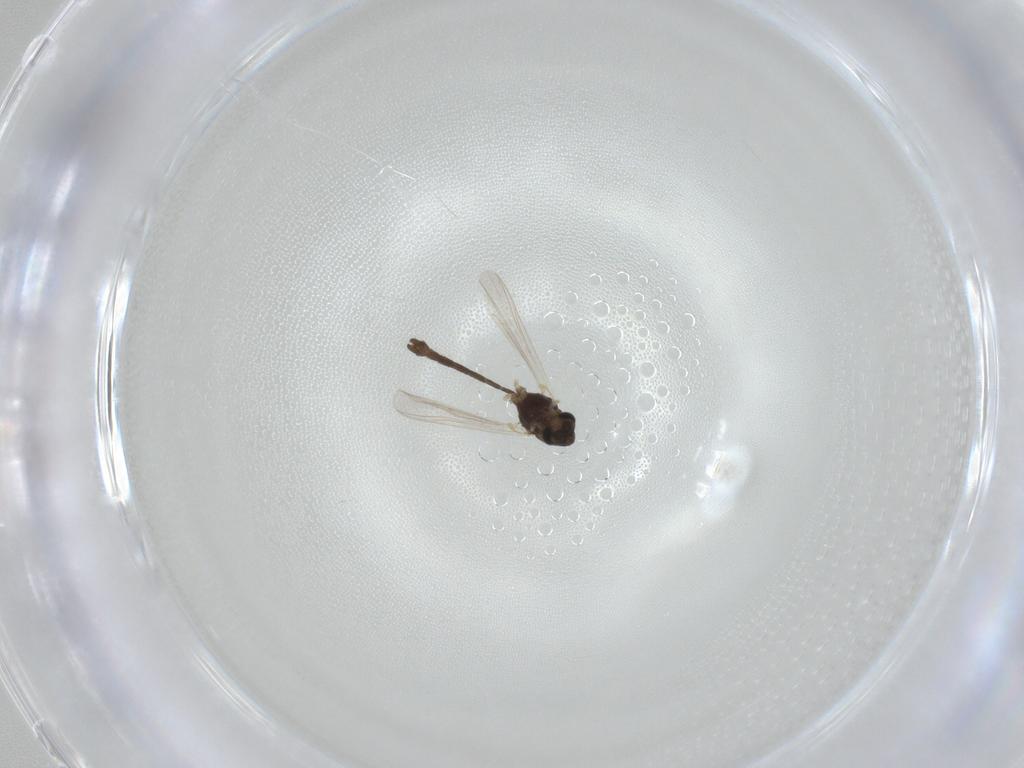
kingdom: Animalia
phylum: Arthropoda
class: Insecta
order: Diptera
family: Chironomidae
